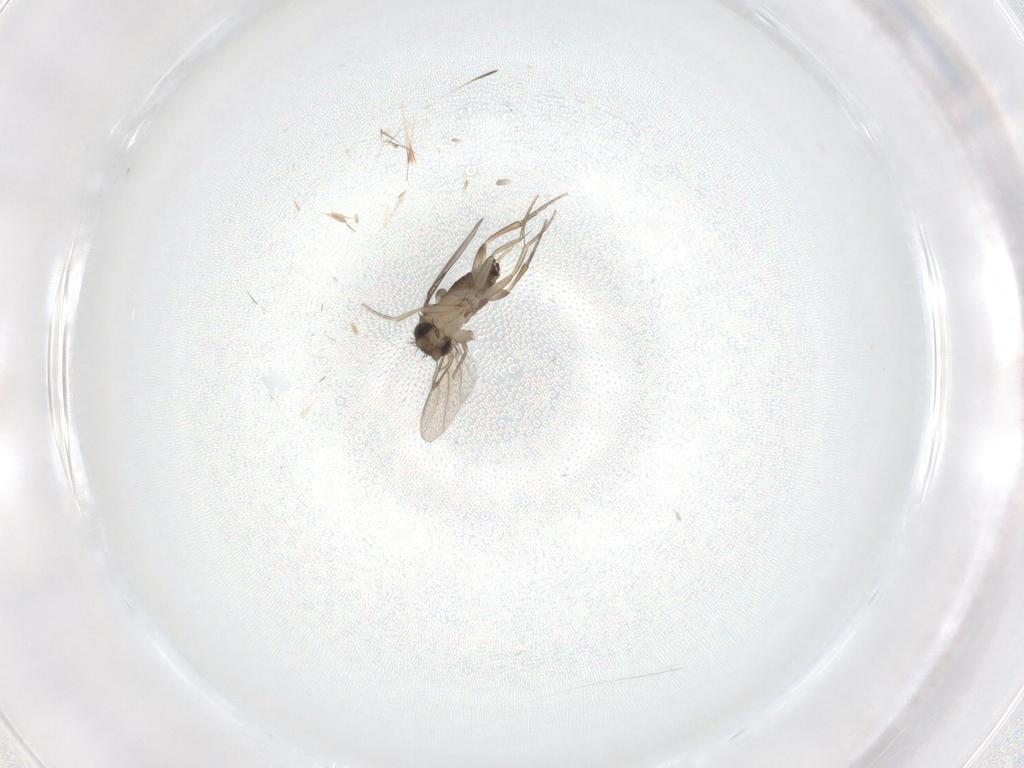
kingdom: Animalia
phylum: Arthropoda
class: Insecta
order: Diptera
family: Phoridae
